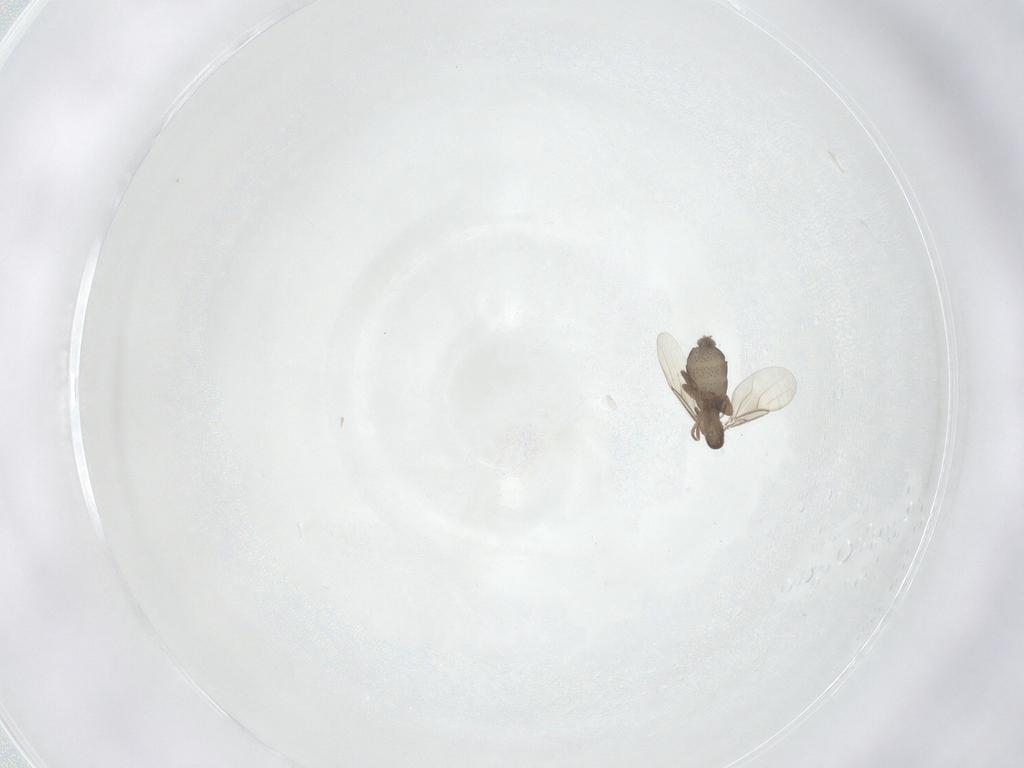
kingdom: Animalia
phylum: Arthropoda
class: Insecta
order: Diptera
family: Phoridae
